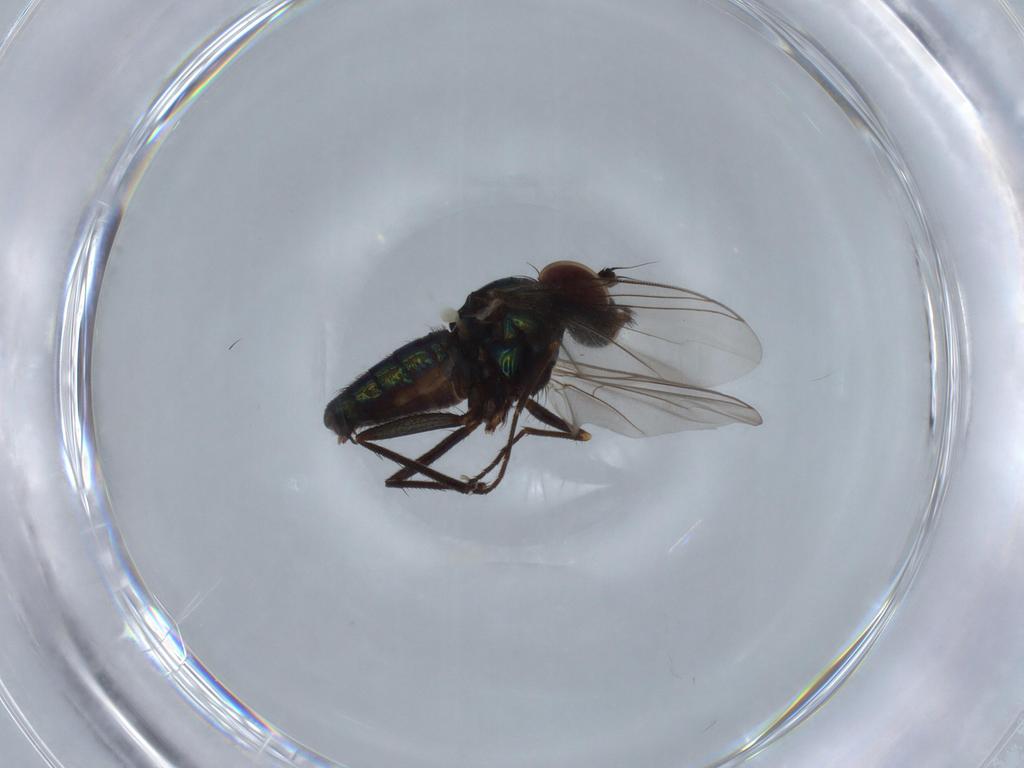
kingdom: Animalia
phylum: Arthropoda
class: Insecta
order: Diptera
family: Dolichopodidae
